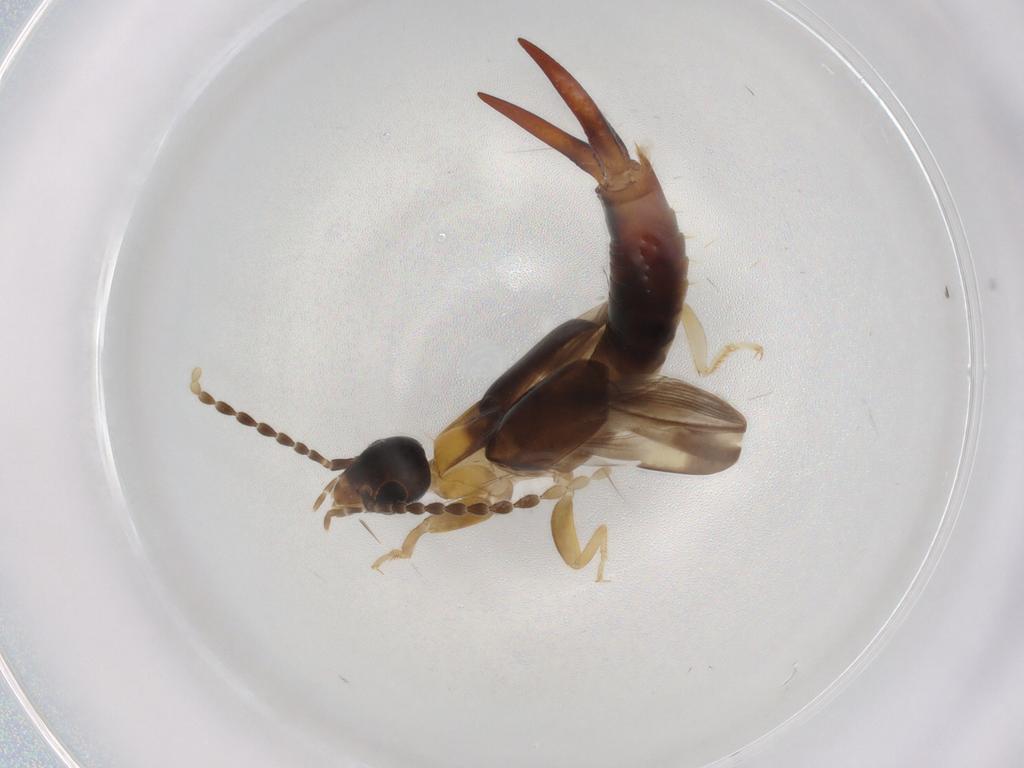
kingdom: Animalia
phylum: Arthropoda
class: Insecta
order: Dermaptera
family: Labiduridae
